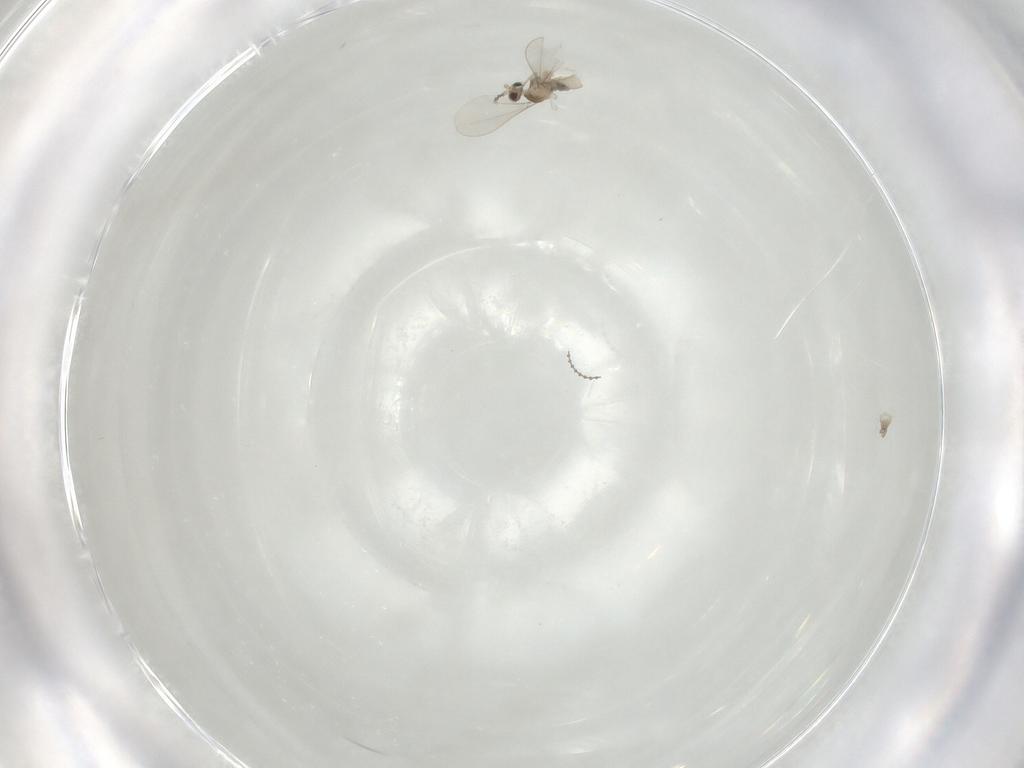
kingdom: Animalia
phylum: Arthropoda
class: Insecta
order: Diptera
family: Cecidomyiidae
